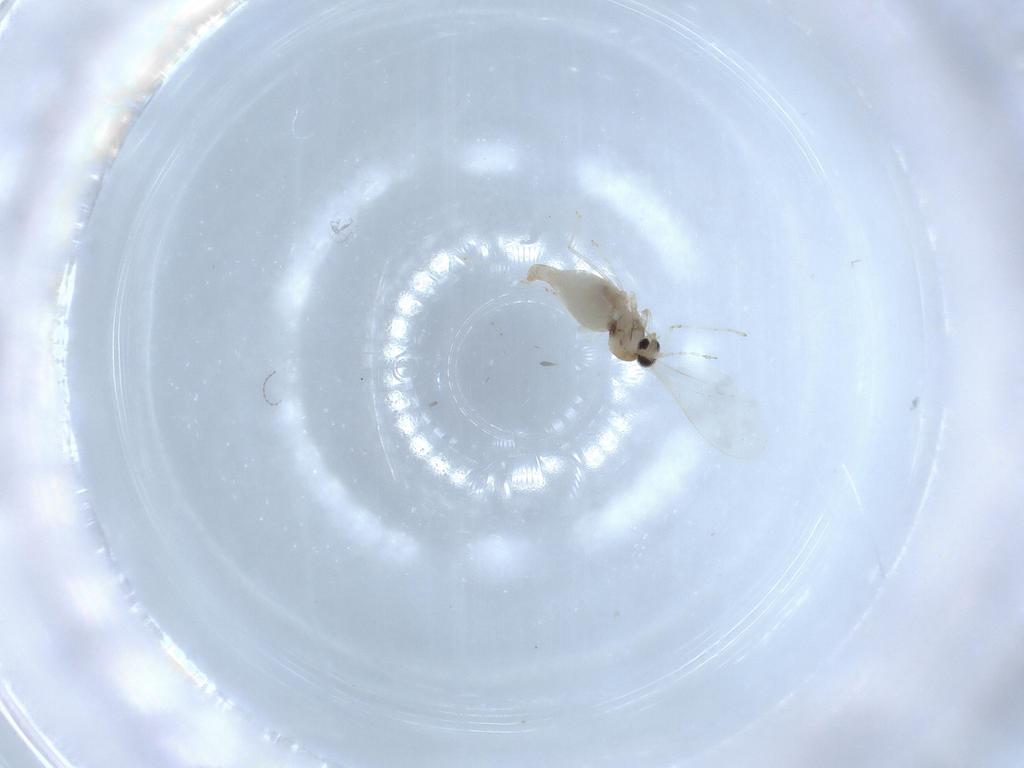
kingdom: Animalia
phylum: Arthropoda
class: Insecta
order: Diptera
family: Cecidomyiidae
